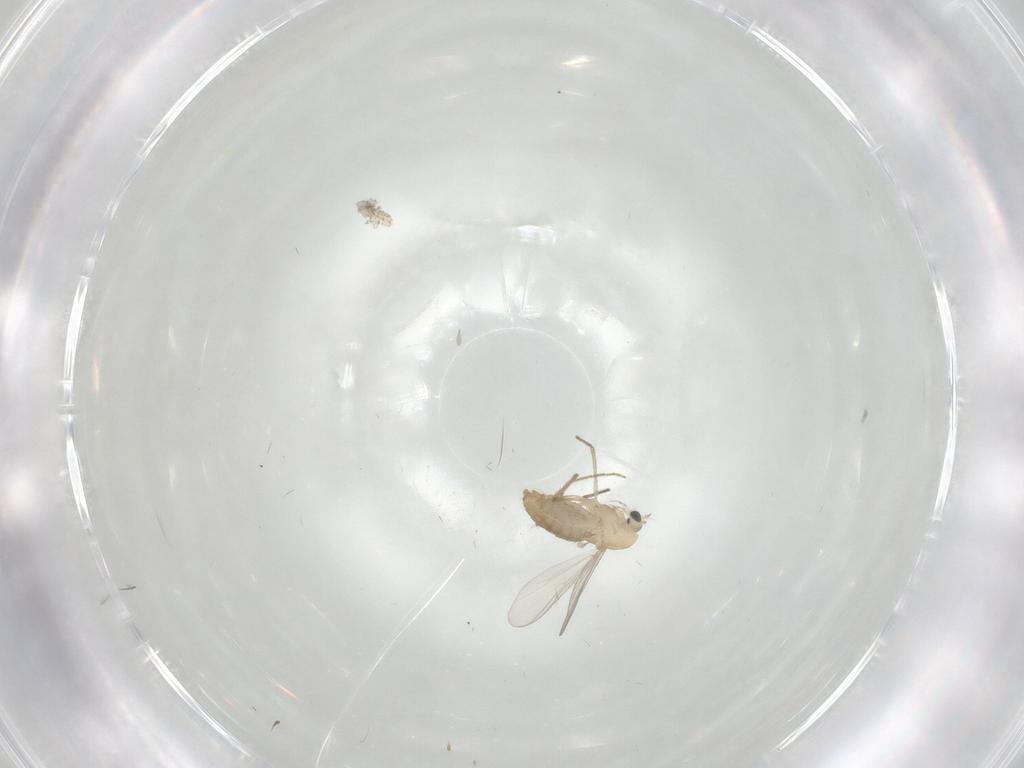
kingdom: Animalia
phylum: Arthropoda
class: Insecta
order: Diptera
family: Chironomidae
